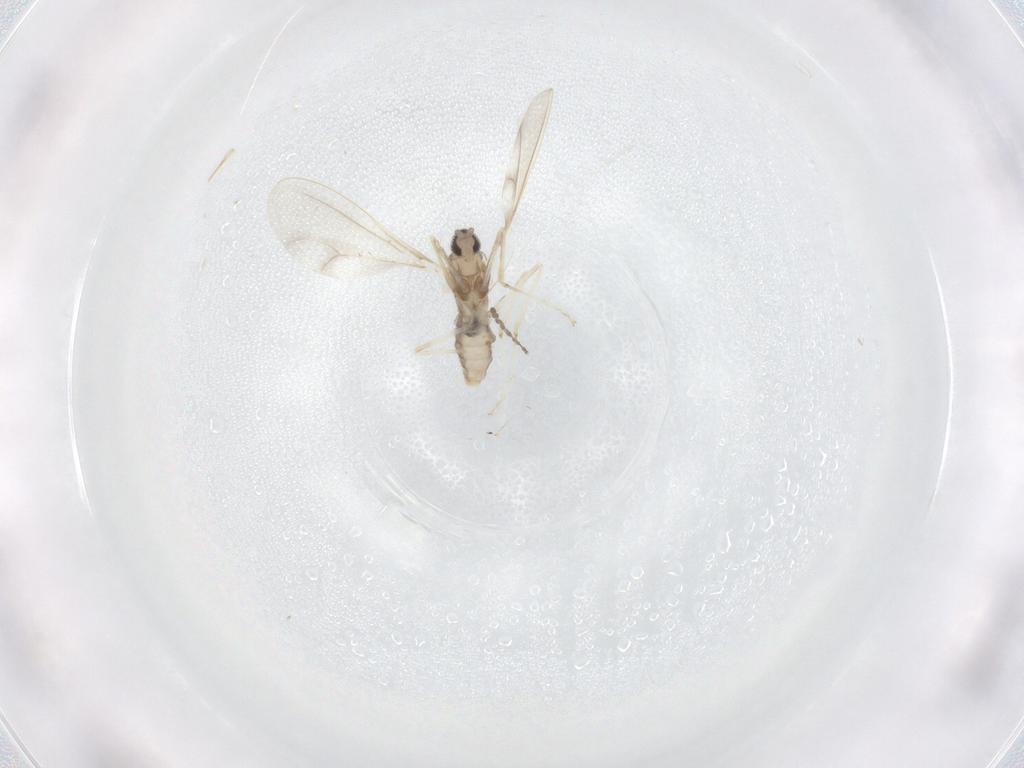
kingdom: Animalia
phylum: Arthropoda
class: Insecta
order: Diptera
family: Cecidomyiidae
